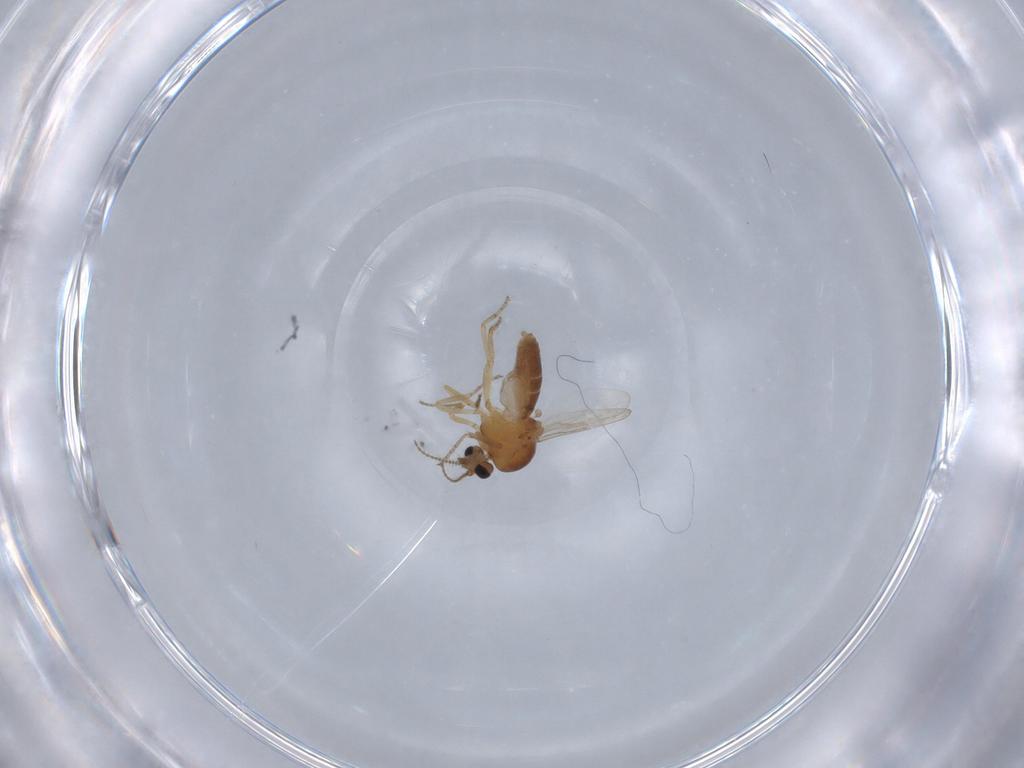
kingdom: Animalia
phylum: Arthropoda
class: Insecta
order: Diptera
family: Ceratopogonidae
